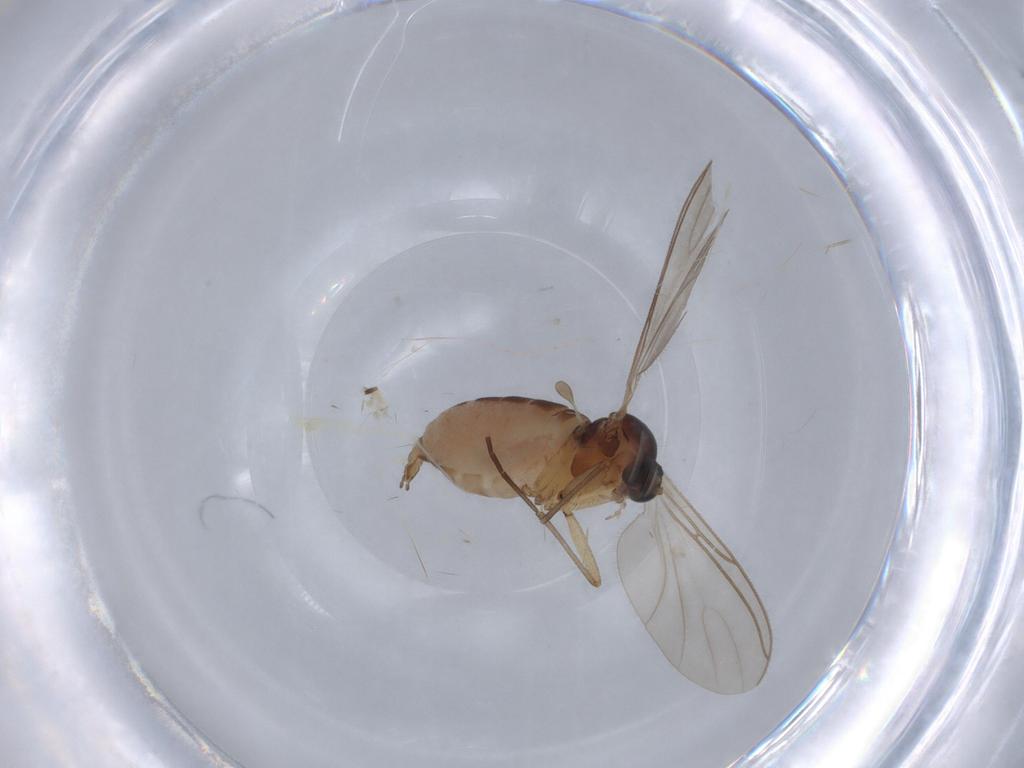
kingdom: Animalia
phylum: Arthropoda
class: Insecta
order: Diptera
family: Sciaridae
